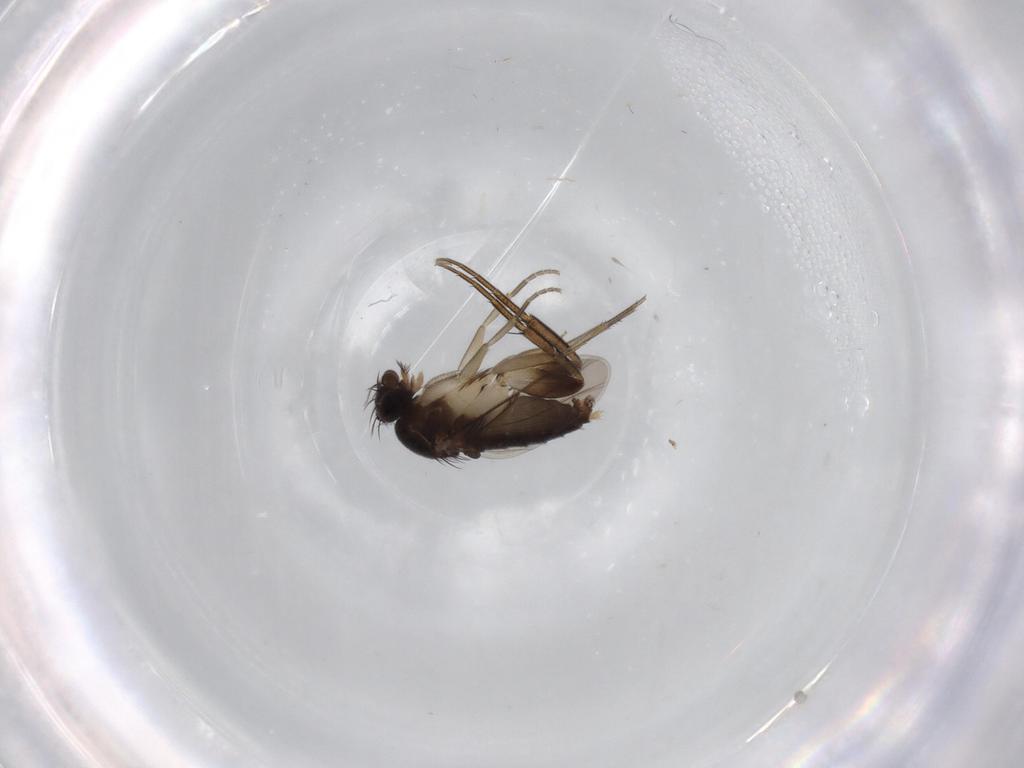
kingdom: Animalia
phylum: Arthropoda
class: Insecta
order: Diptera
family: Phoridae
